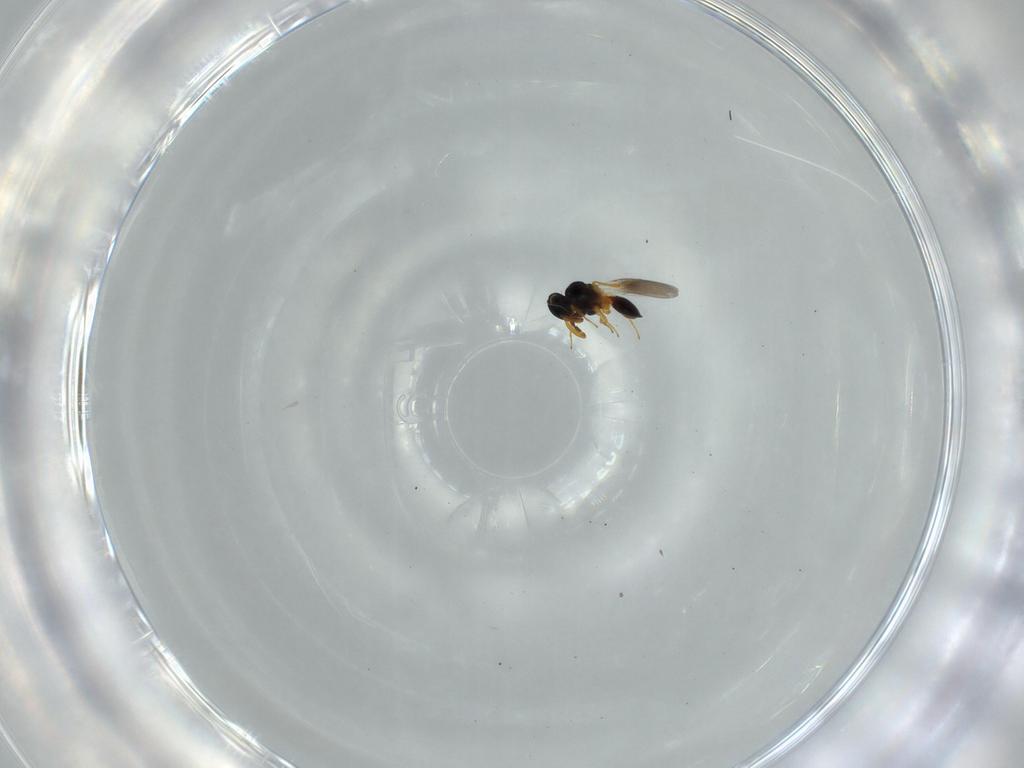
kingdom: Animalia
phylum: Arthropoda
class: Insecta
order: Hymenoptera
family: Platygastridae
